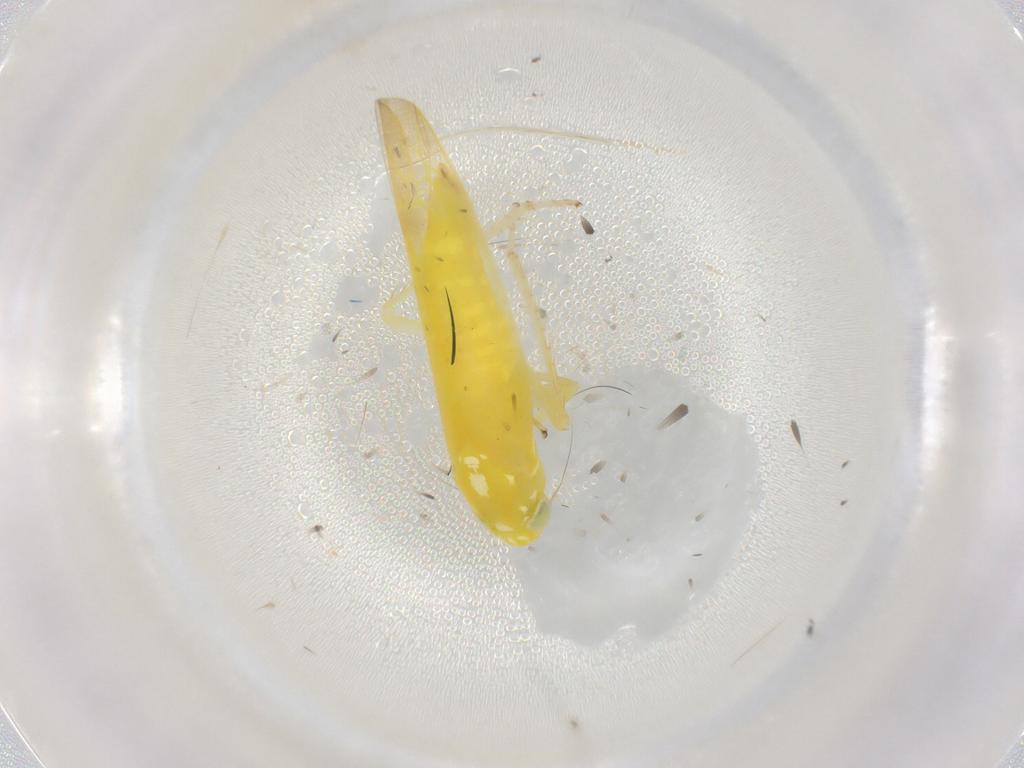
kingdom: Animalia
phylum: Arthropoda
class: Insecta
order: Hemiptera
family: Cicadellidae
